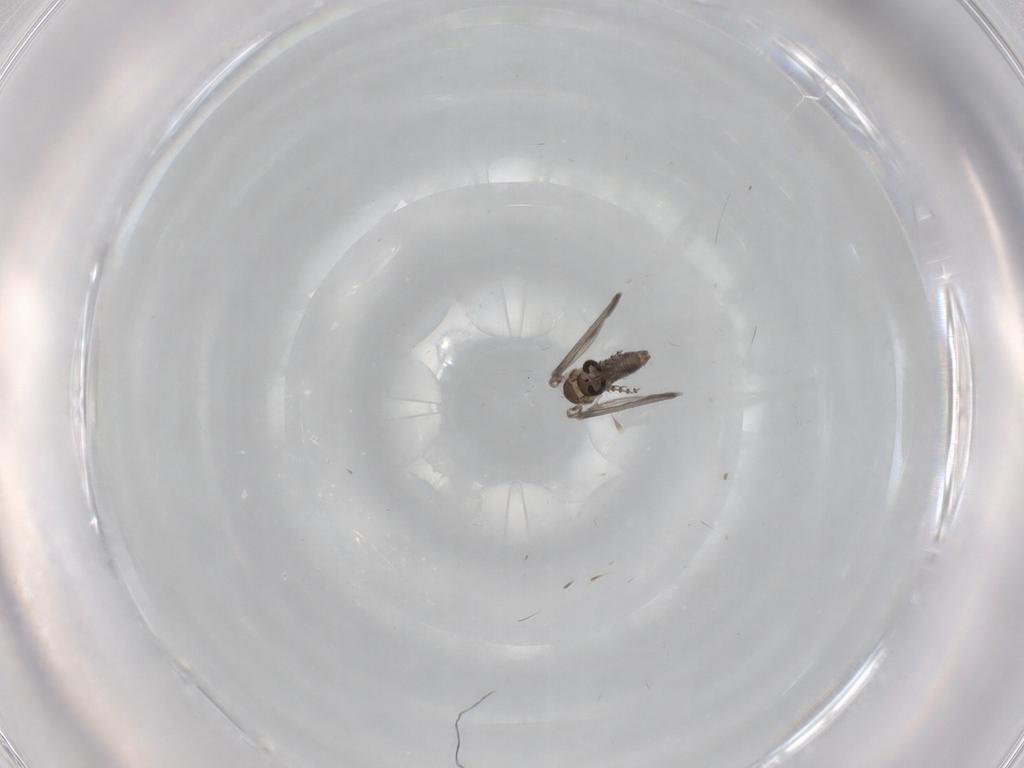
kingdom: Animalia
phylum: Arthropoda
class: Insecta
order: Diptera
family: Psychodidae
